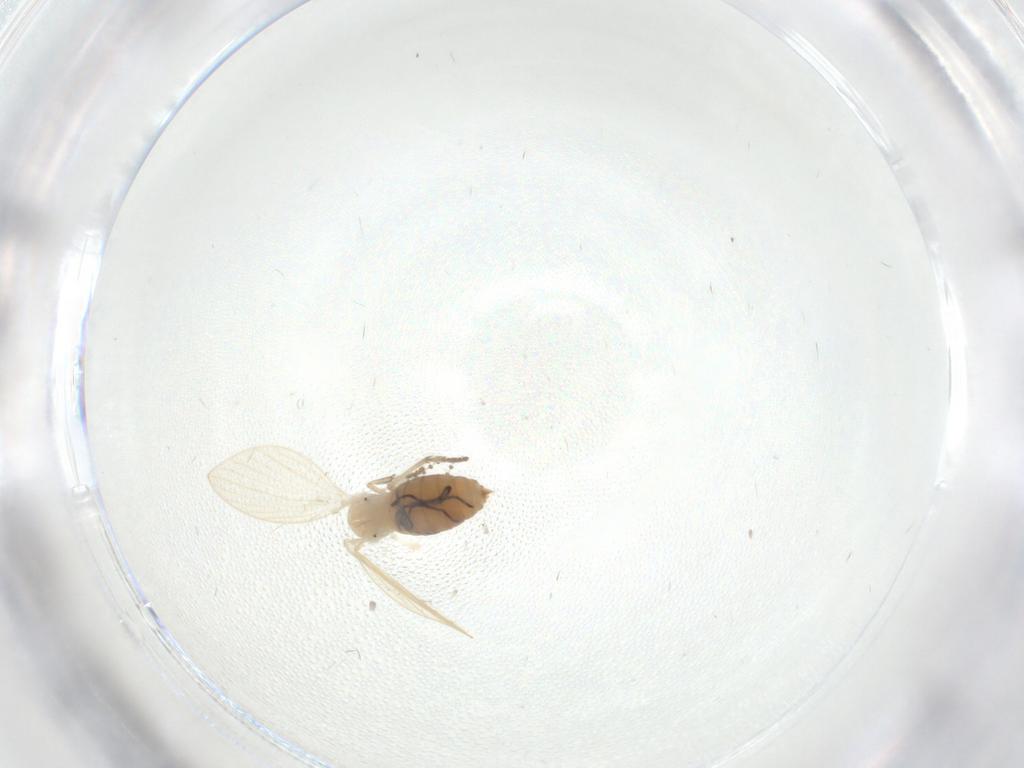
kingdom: Animalia
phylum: Arthropoda
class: Insecta
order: Diptera
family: Psychodidae
